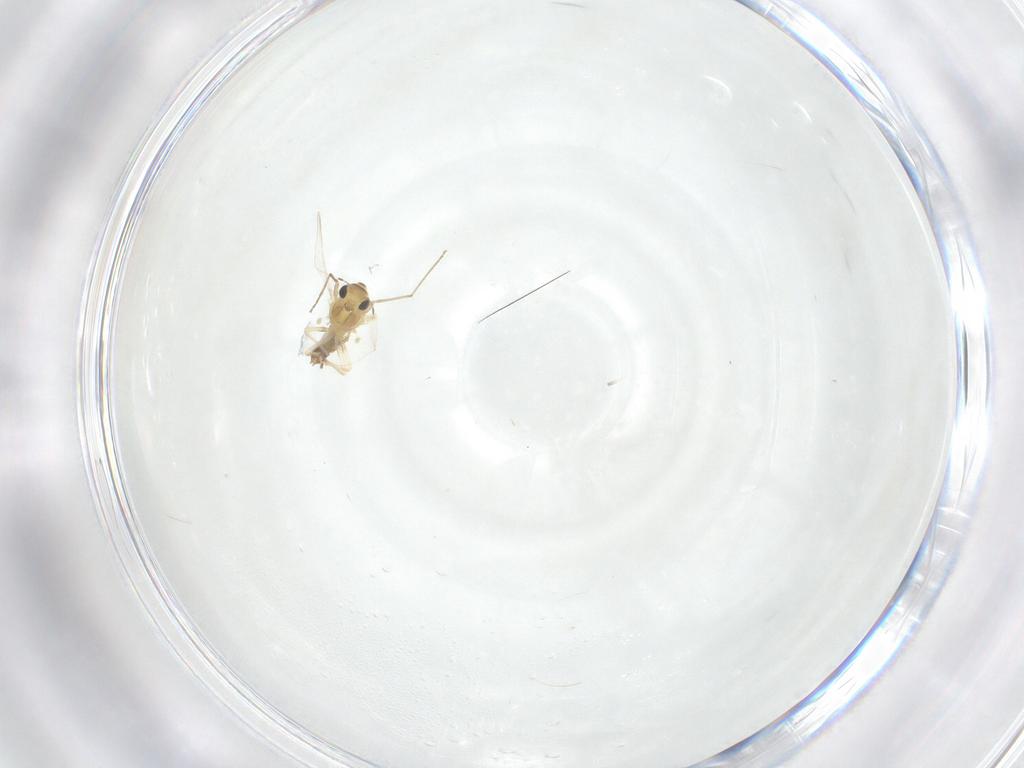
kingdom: Animalia
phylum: Arthropoda
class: Insecta
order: Diptera
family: Chironomidae
